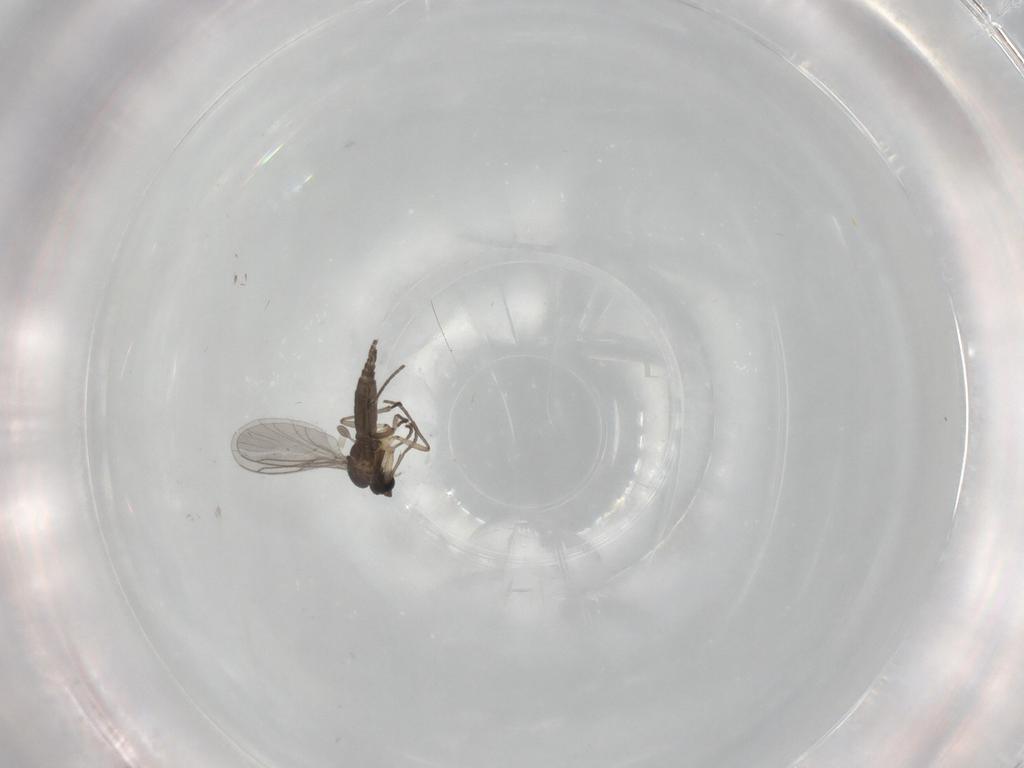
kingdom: Animalia
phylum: Arthropoda
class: Insecta
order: Diptera
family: Sciaridae
